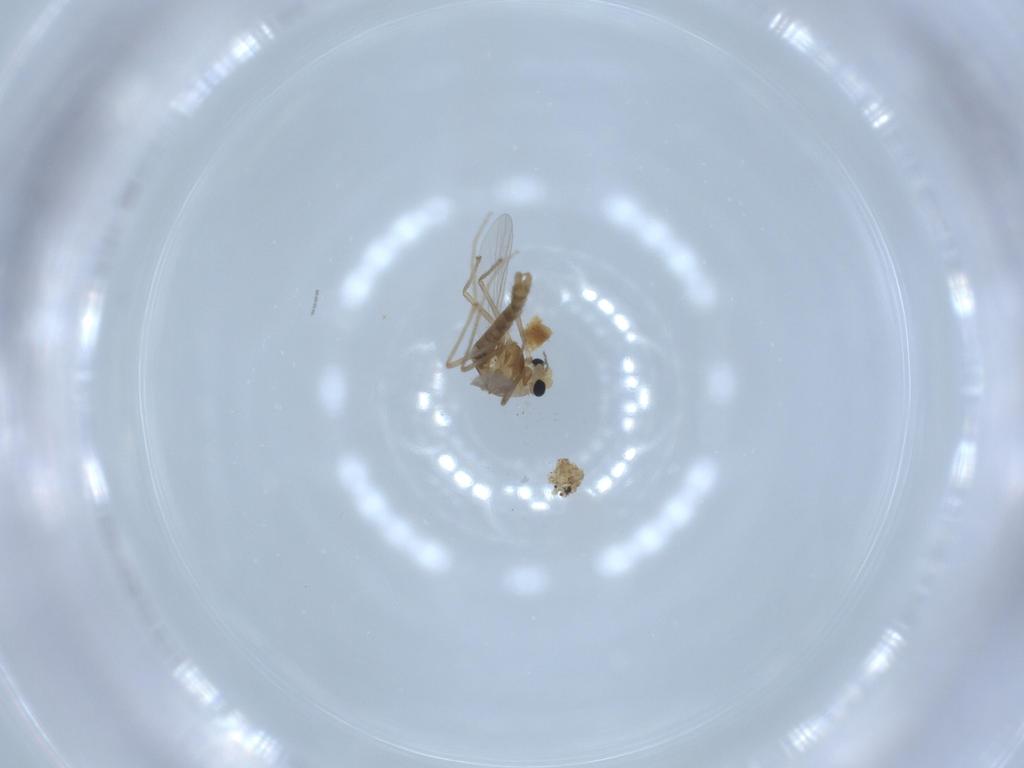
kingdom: Animalia
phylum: Arthropoda
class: Insecta
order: Diptera
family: Chironomidae
